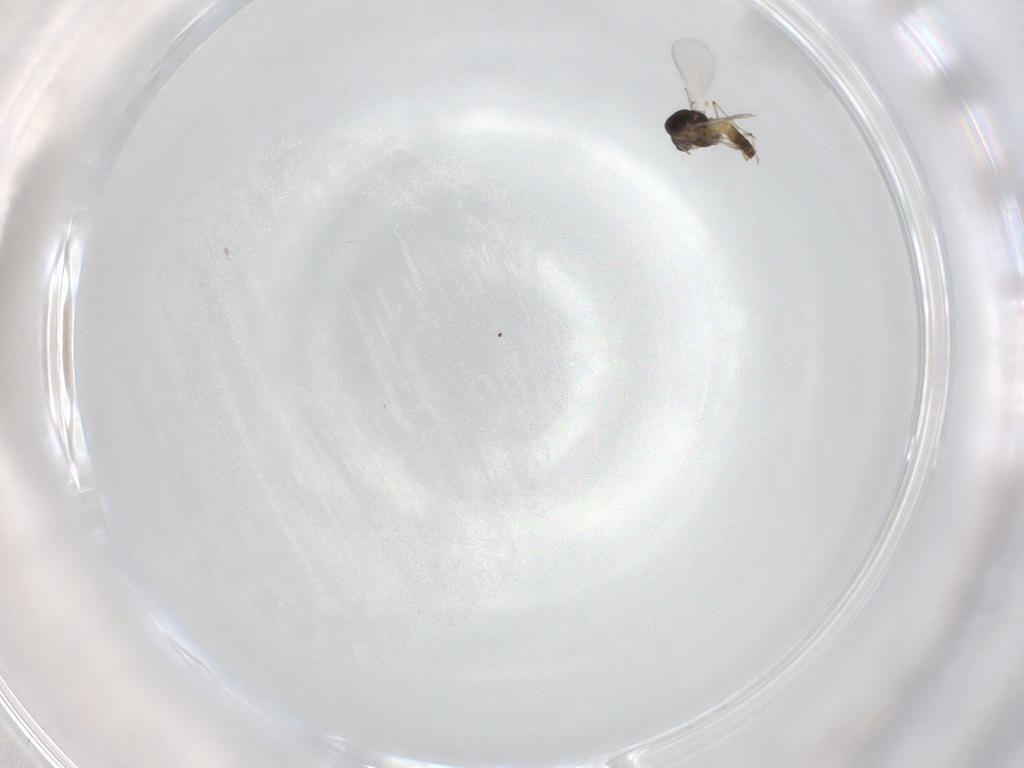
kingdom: Animalia
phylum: Arthropoda
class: Insecta
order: Diptera
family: Chironomidae
